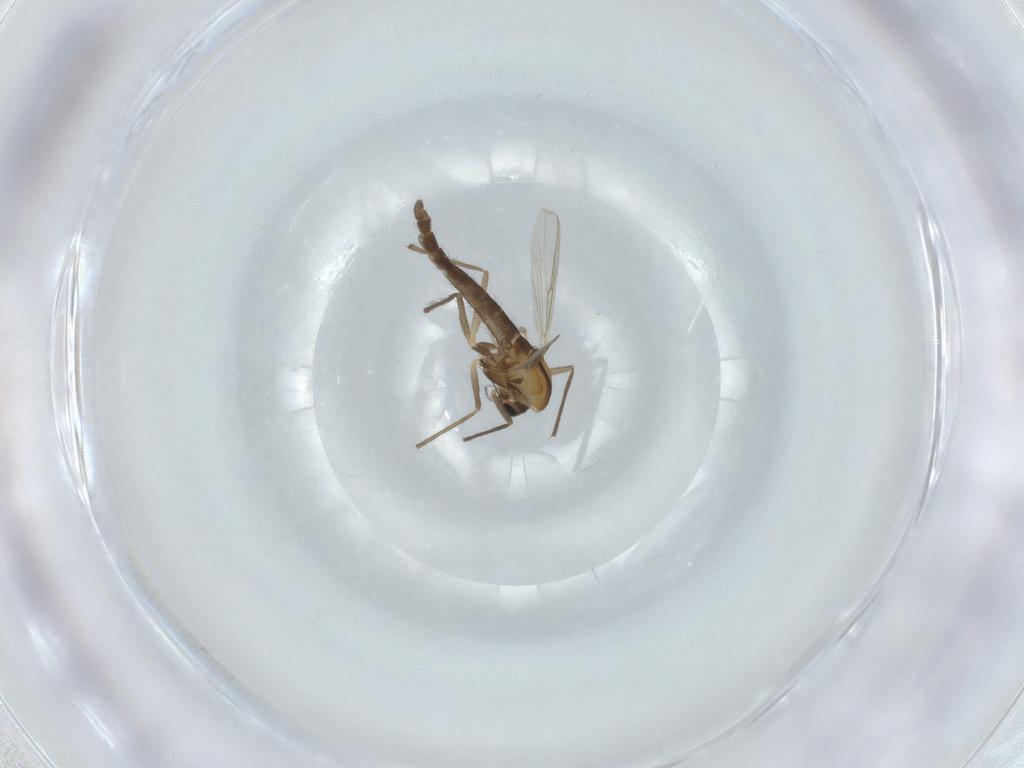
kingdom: Animalia
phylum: Arthropoda
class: Insecta
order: Diptera
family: Chironomidae
